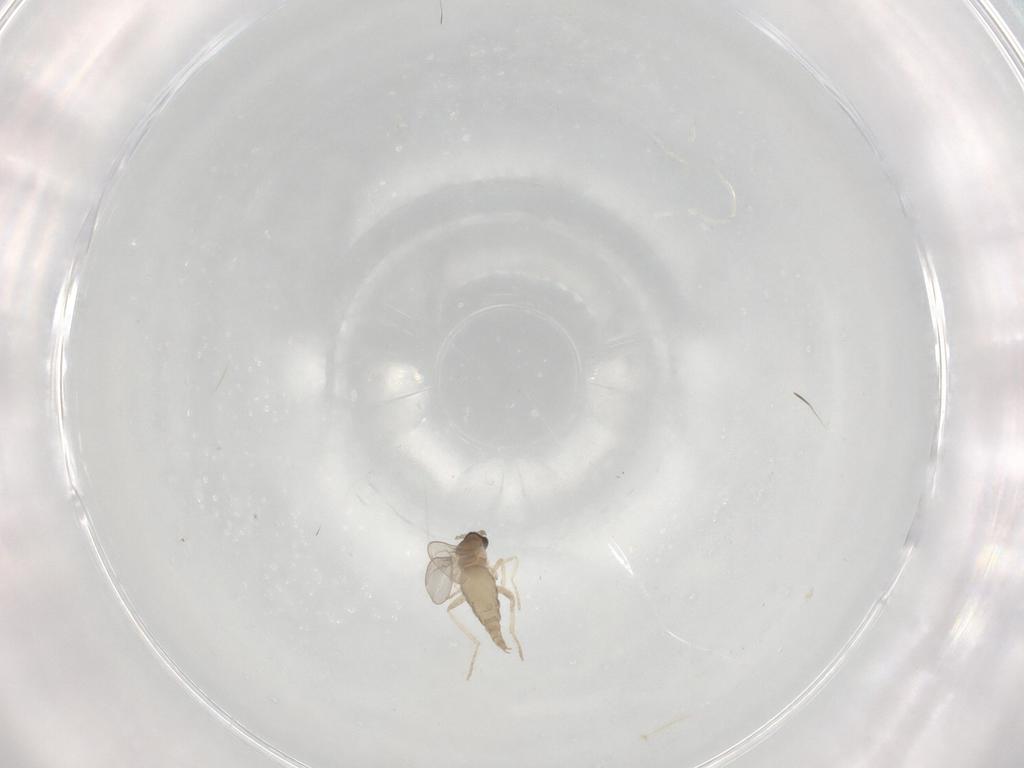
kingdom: Animalia
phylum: Arthropoda
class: Insecta
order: Diptera
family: Cecidomyiidae
